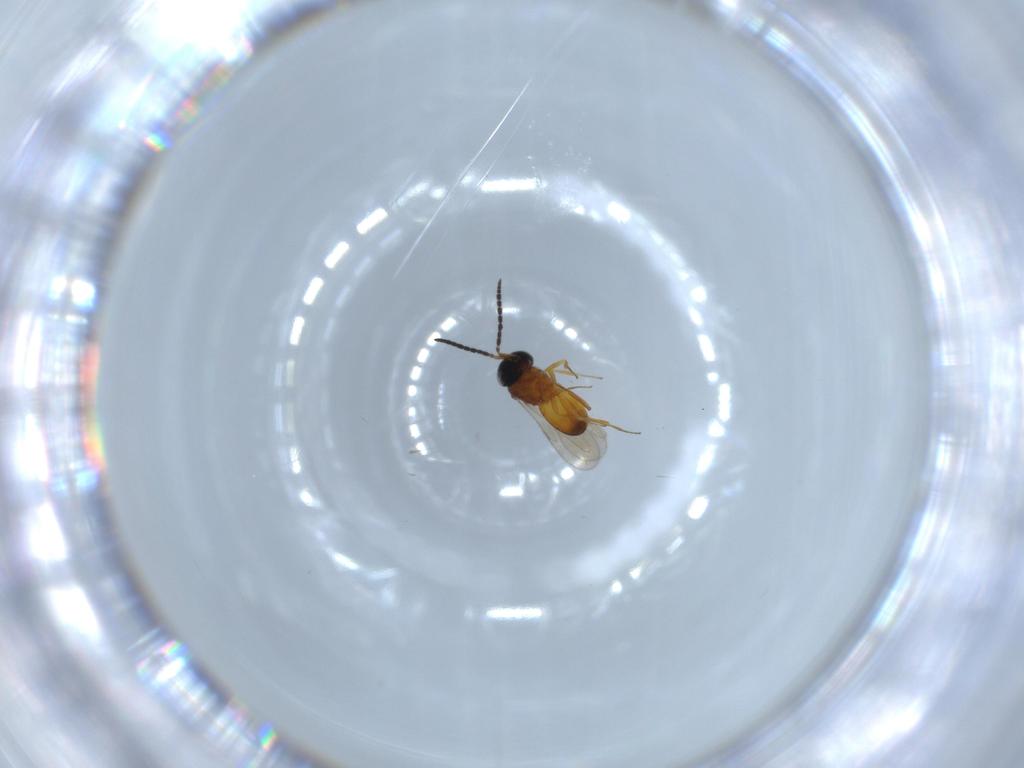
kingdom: Animalia
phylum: Arthropoda
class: Insecta
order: Hymenoptera
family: Scelionidae
